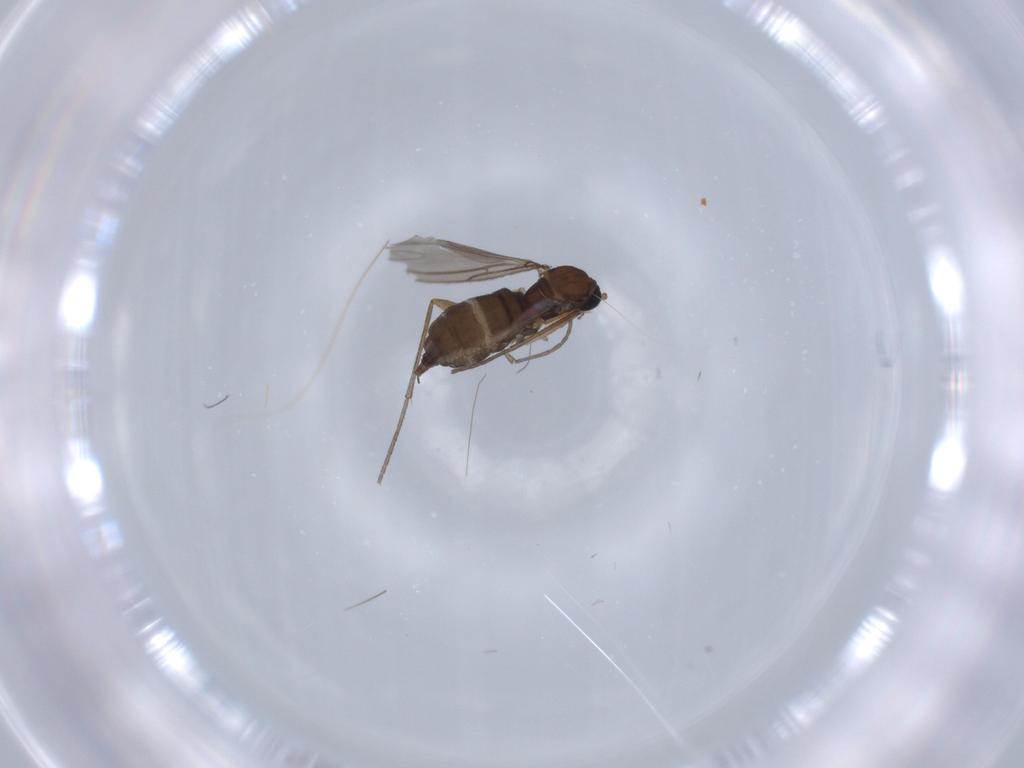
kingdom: Animalia
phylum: Arthropoda
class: Insecta
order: Diptera
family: Sciaridae
